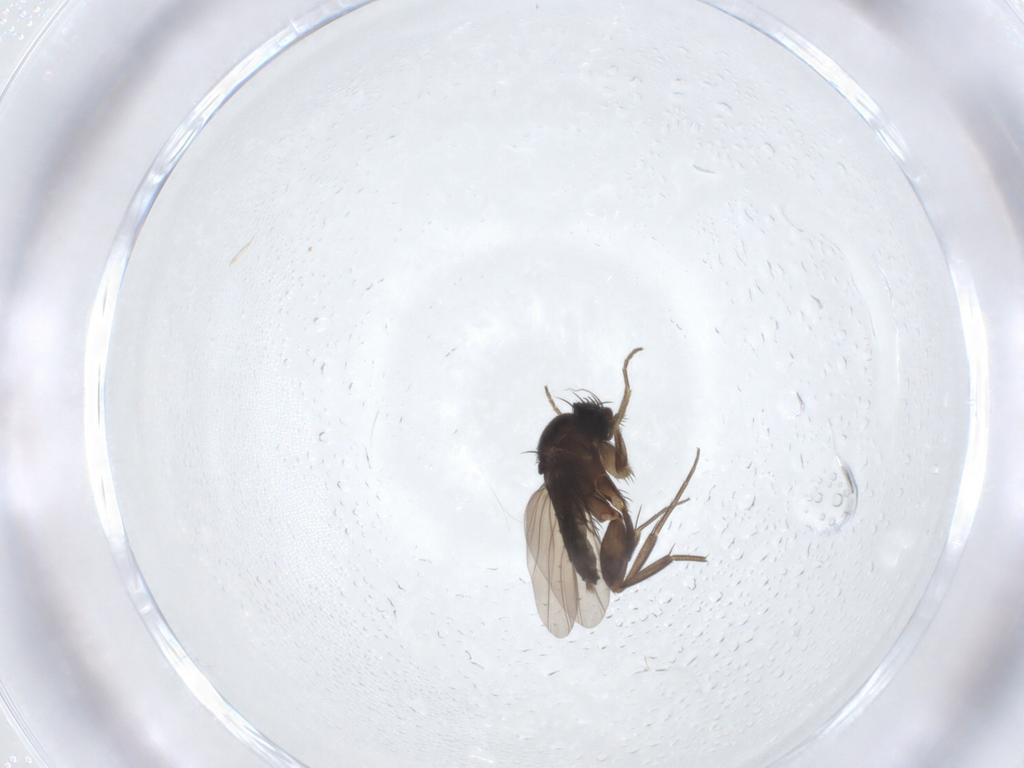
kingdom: Animalia
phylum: Arthropoda
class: Insecta
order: Diptera
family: Phoridae
